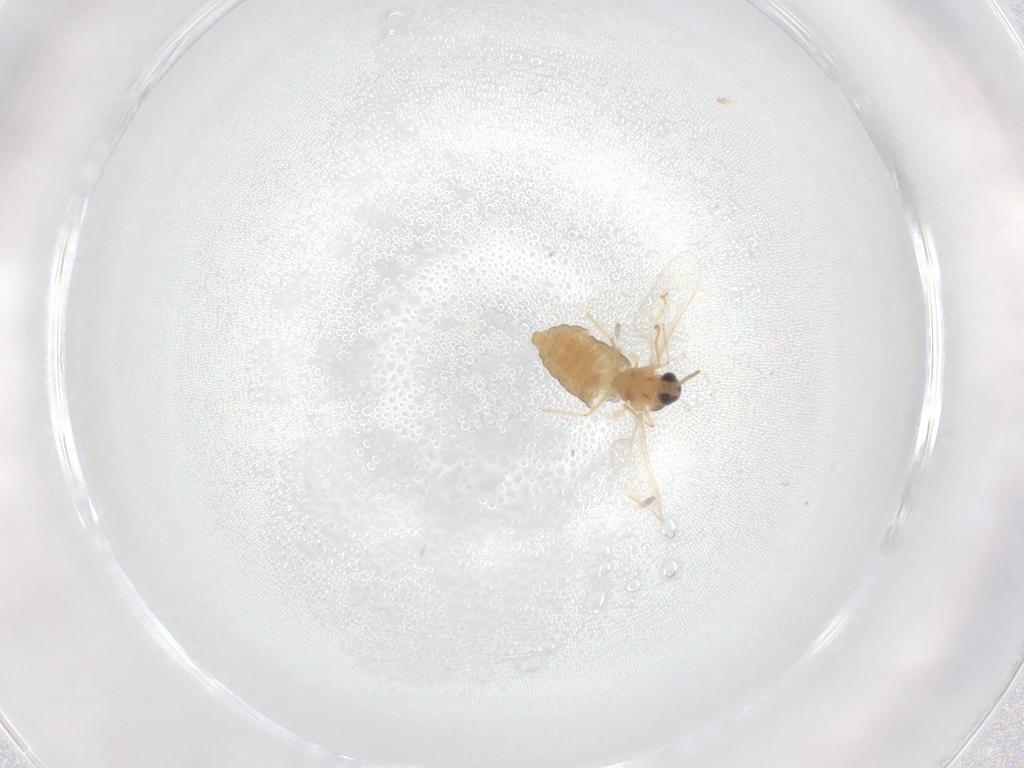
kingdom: Animalia
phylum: Arthropoda
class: Insecta
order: Diptera
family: Cecidomyiidae
